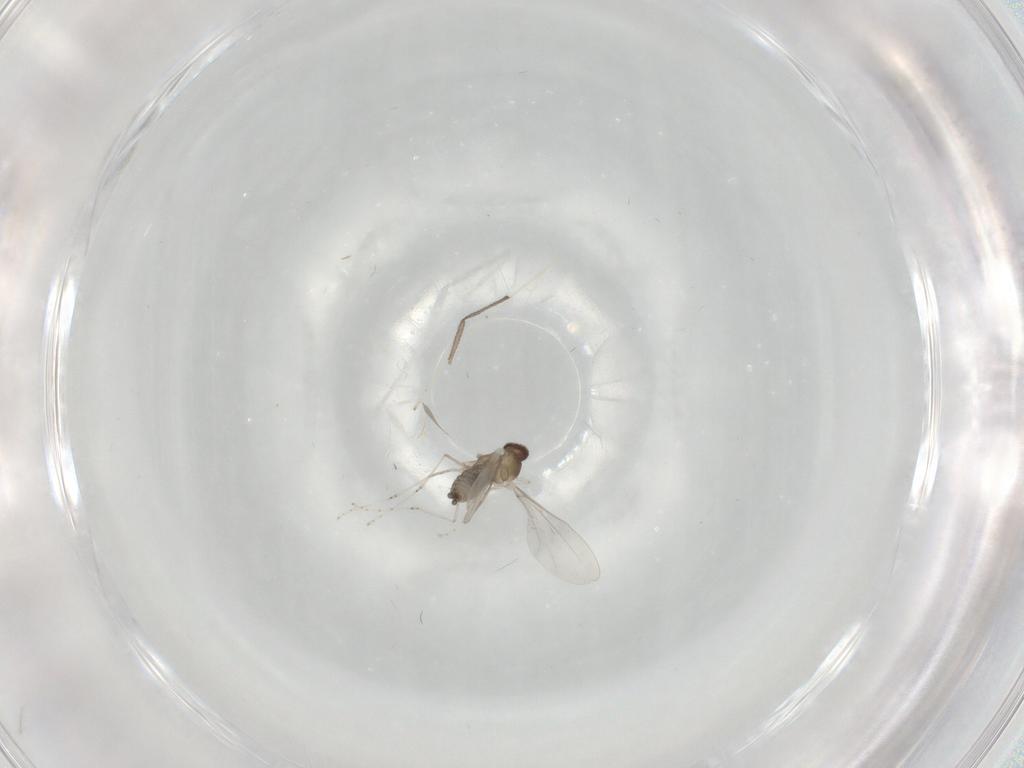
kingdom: Animalia
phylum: Arthropoda
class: Insecta
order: Diptera
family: Cecidomyiidae
